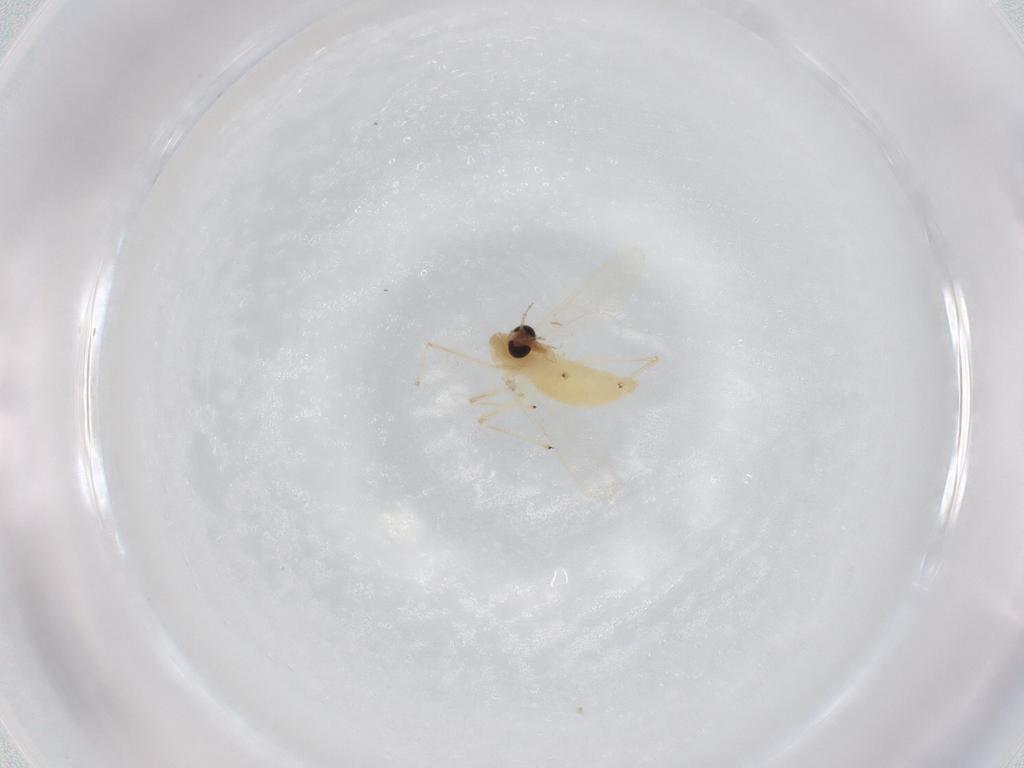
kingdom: Animalia
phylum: Arthropoda
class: Insecta
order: Diptera
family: Chironomidae
